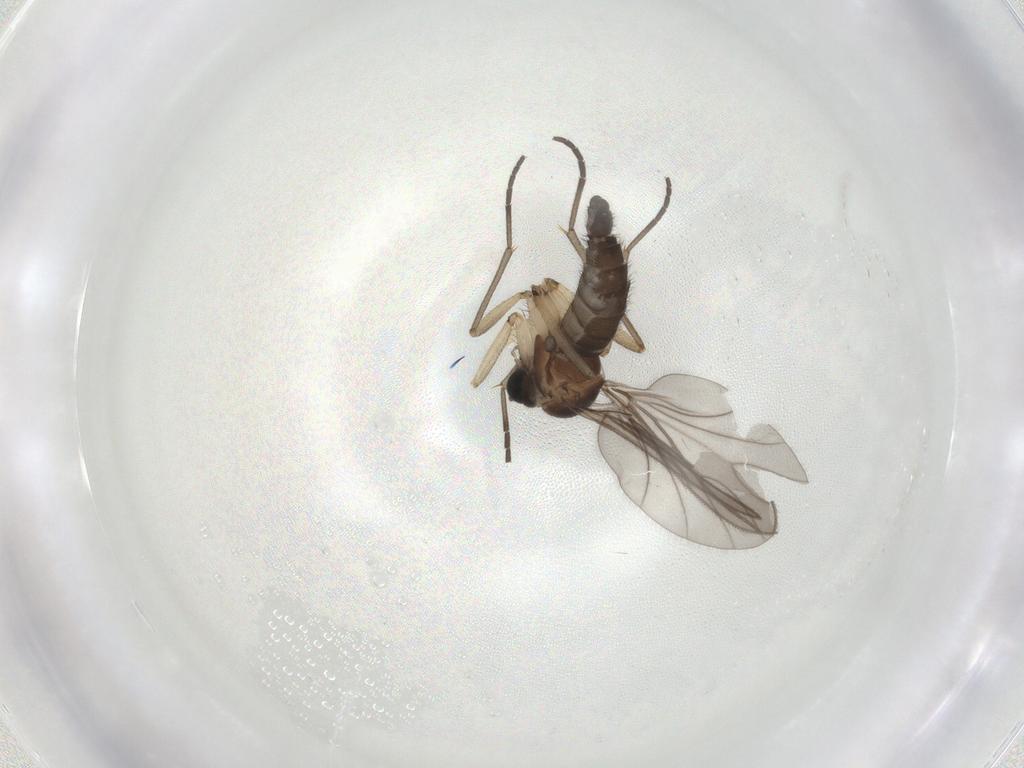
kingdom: Animalia
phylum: Arthropoda
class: Insecta
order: Diptera
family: Sciaridae
